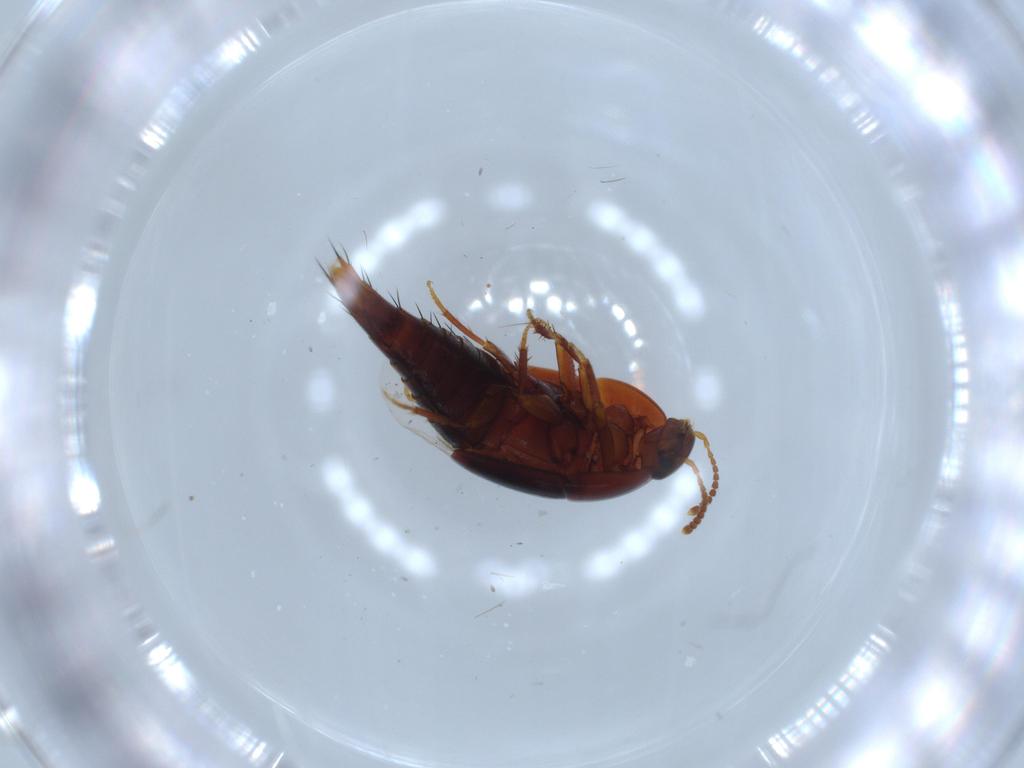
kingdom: Animalia
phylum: Arthropoda
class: Insecta
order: Coleoptera
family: Staphylinidae
